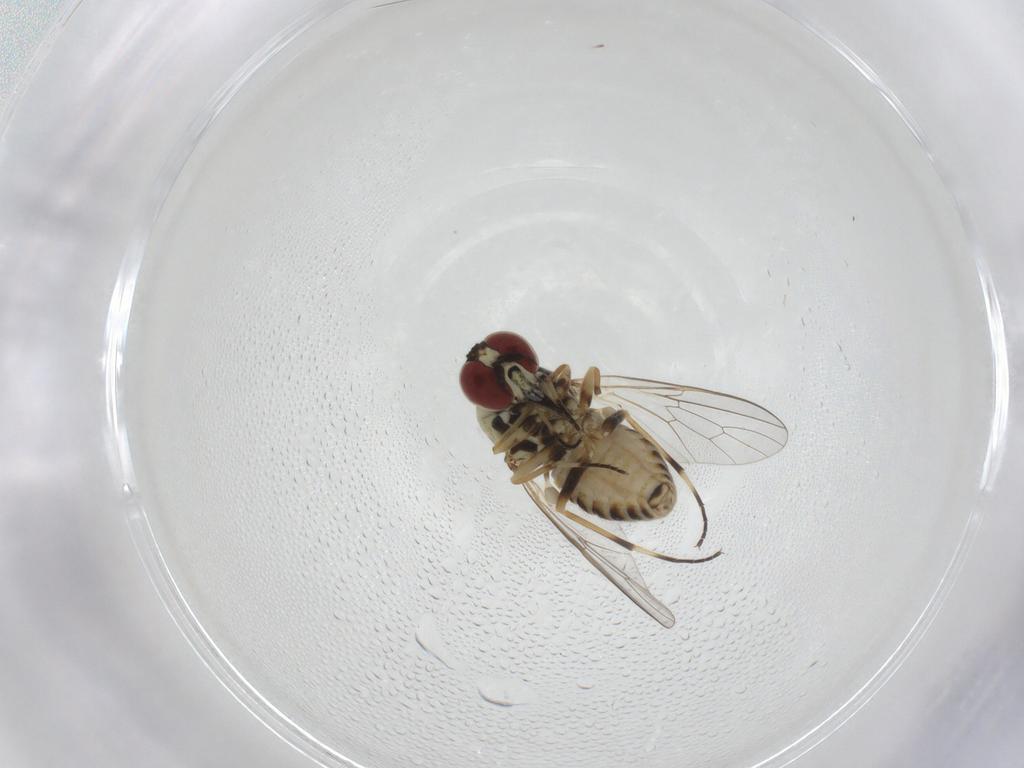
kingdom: Animalia
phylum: Arthropoda
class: Insecta
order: Diptera
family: Mythicomyiidae
